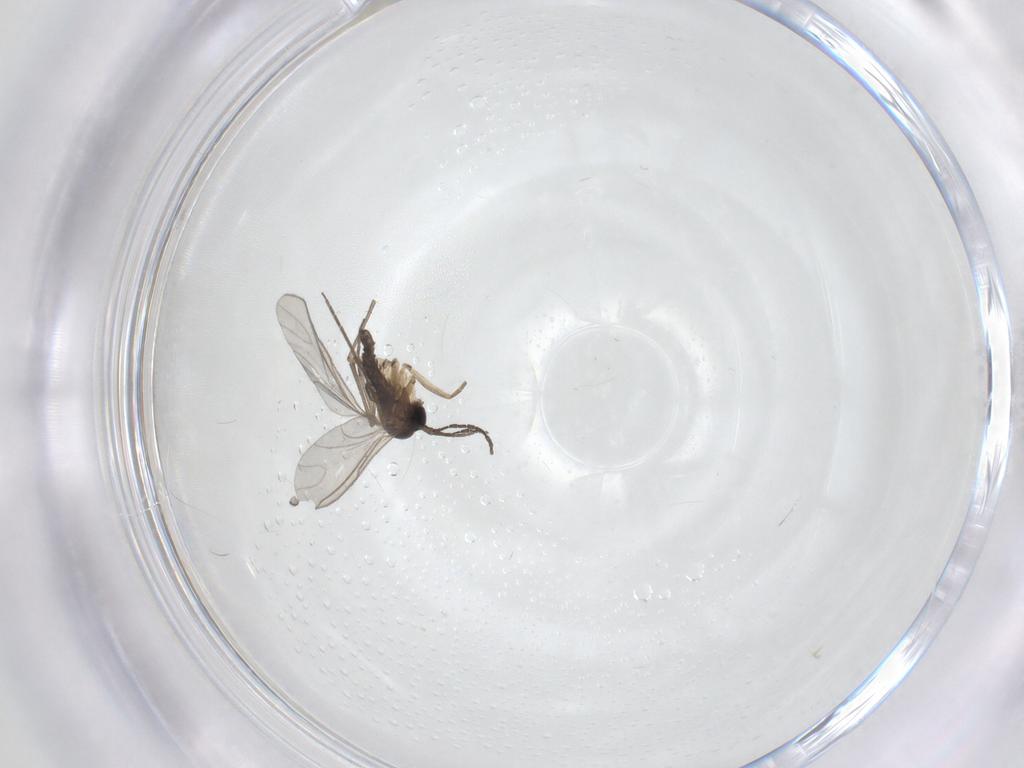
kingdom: Animalia
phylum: Arthropoda
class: Insecta
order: Diptera
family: Sciaridae
